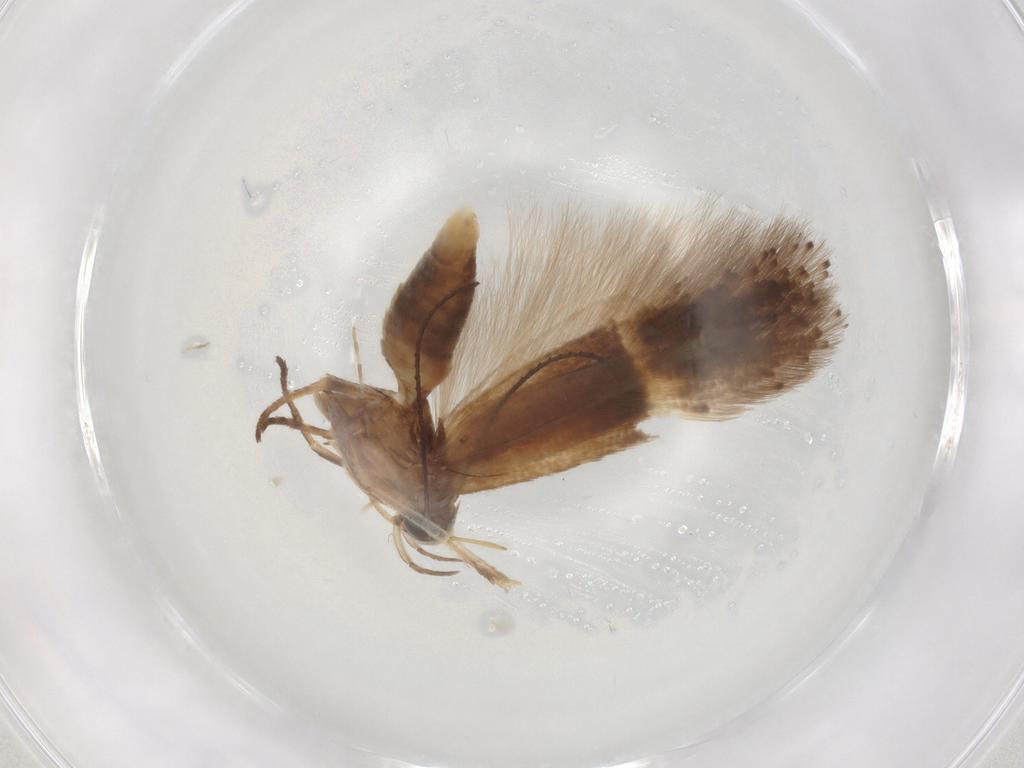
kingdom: Animalia
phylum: Arthropoda
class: Insecta
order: Lepidoptera
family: Gelechiidae
